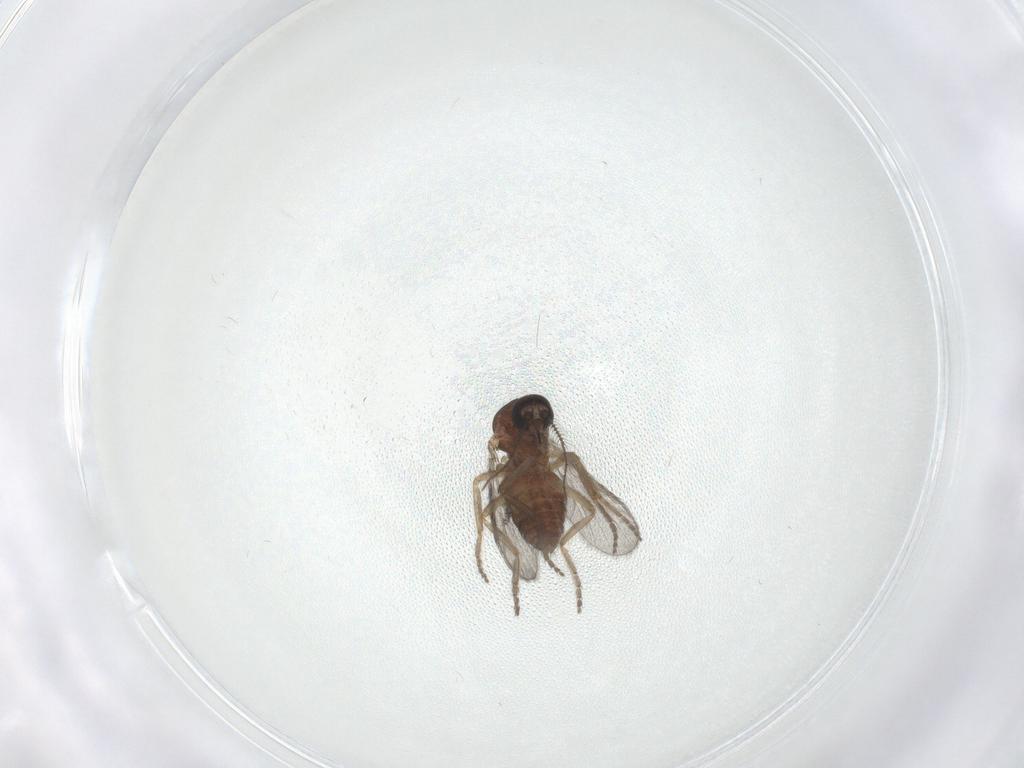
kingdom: Animalia
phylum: Arthropoda
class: Insecta
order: Diptera
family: Ceratopogonidae
